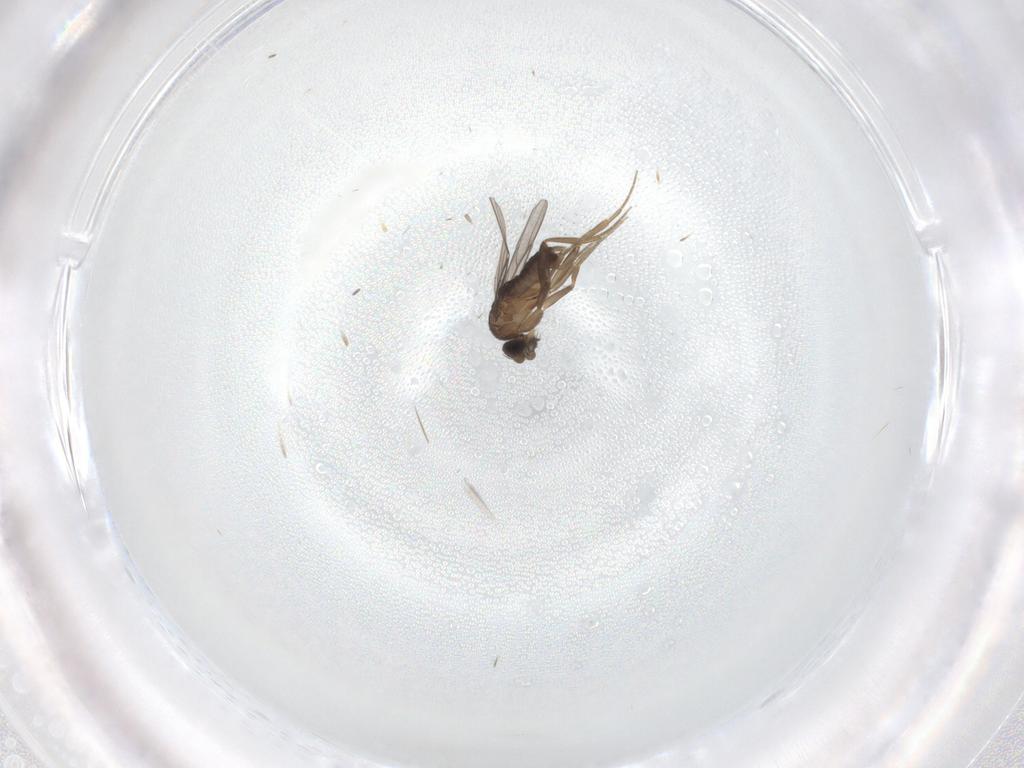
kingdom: Animalia
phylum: Arthropoda
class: Insecta
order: Diptera
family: Phoridae
